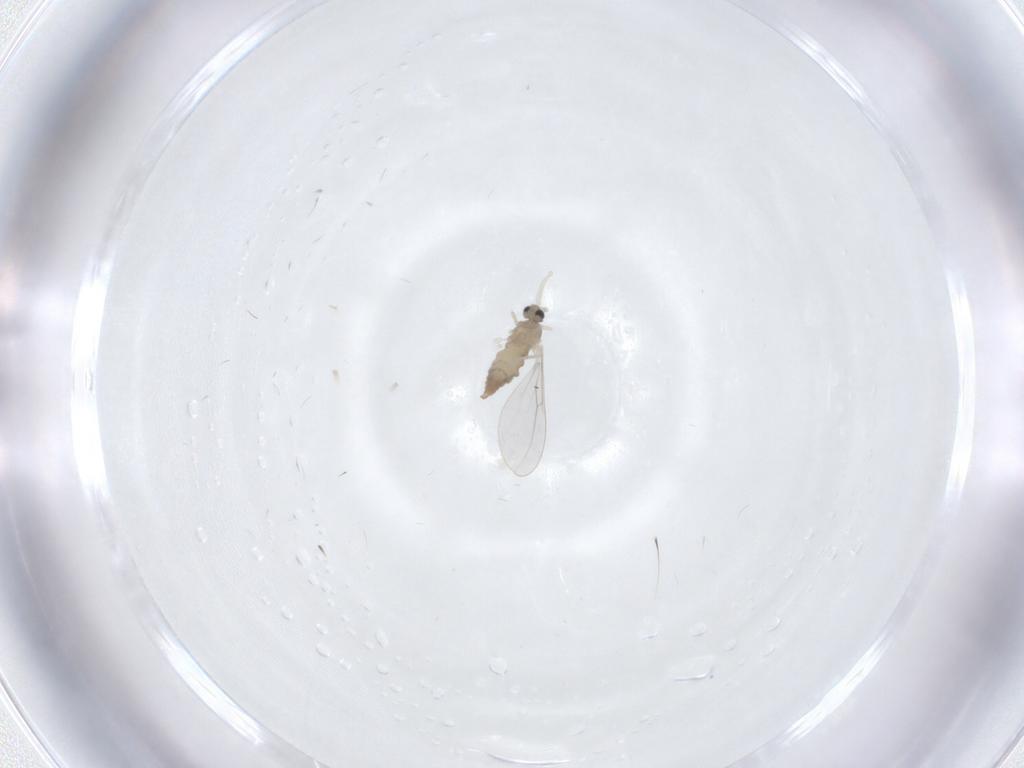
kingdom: Animalia
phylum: Arthropoda
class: Insecta
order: Diptera
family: Cecidomyiidae
